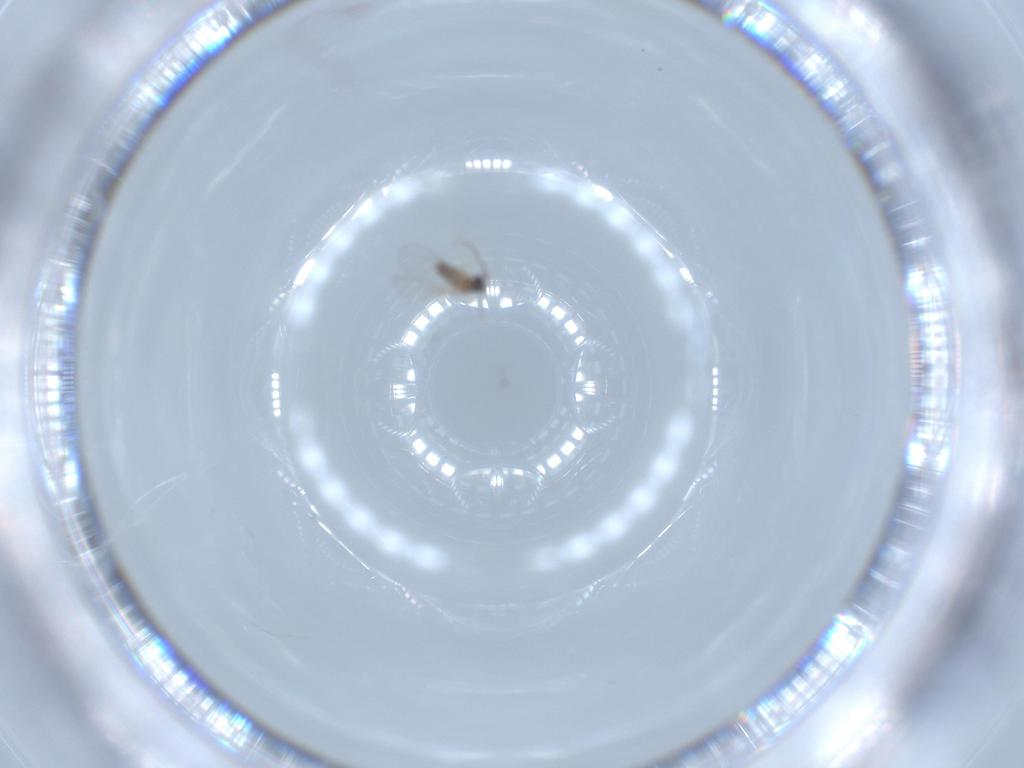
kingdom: Animalia
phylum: Arthropoda
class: Insecta
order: Diptera
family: Cecidomyiidae
